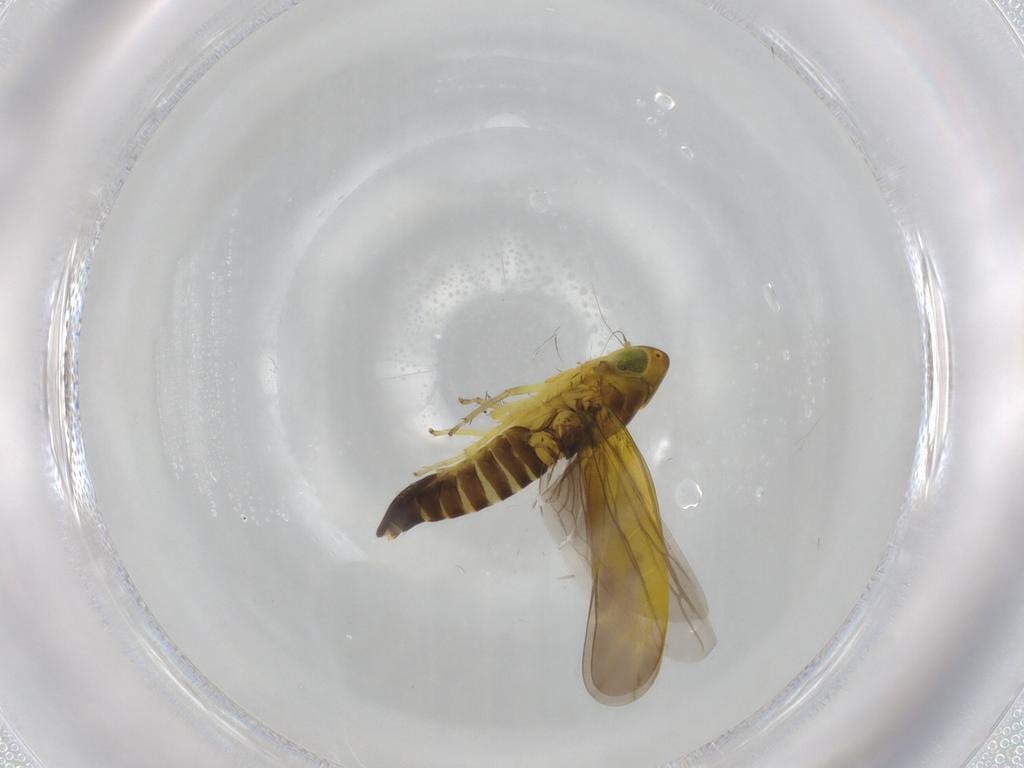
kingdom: Animalia
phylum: Arthropoda
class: Insecta
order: Hemiptera
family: Cicadellidae
